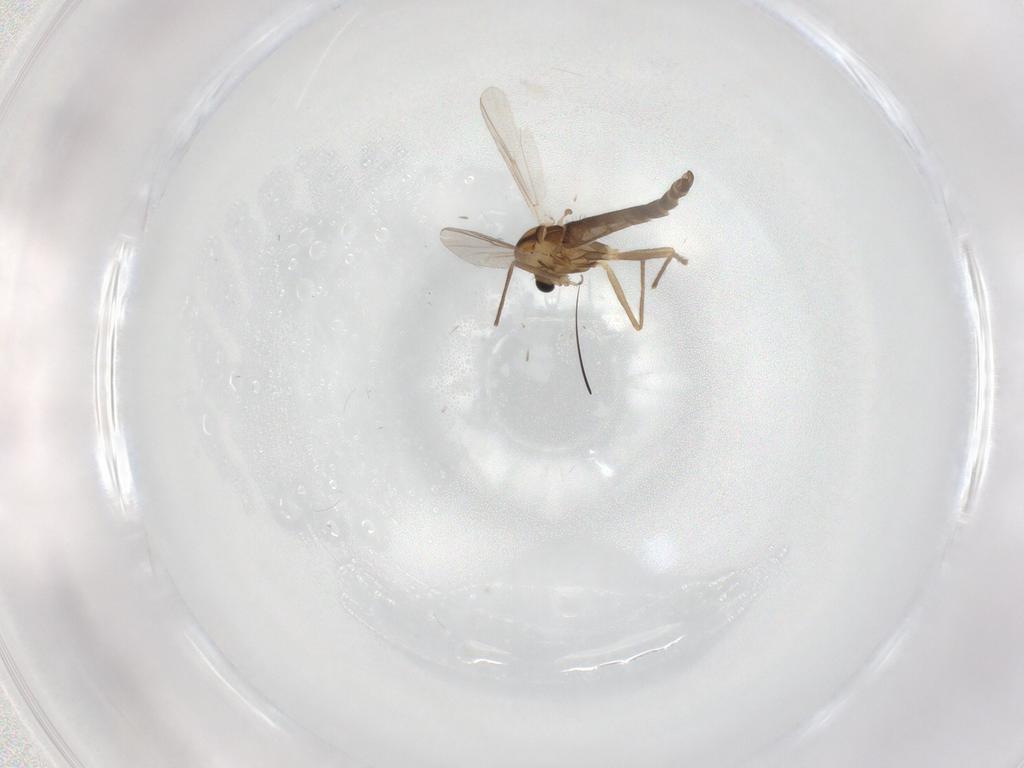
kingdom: Animalia
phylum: Arthropoda
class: Insecta
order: Diptera
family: Chironomidae
